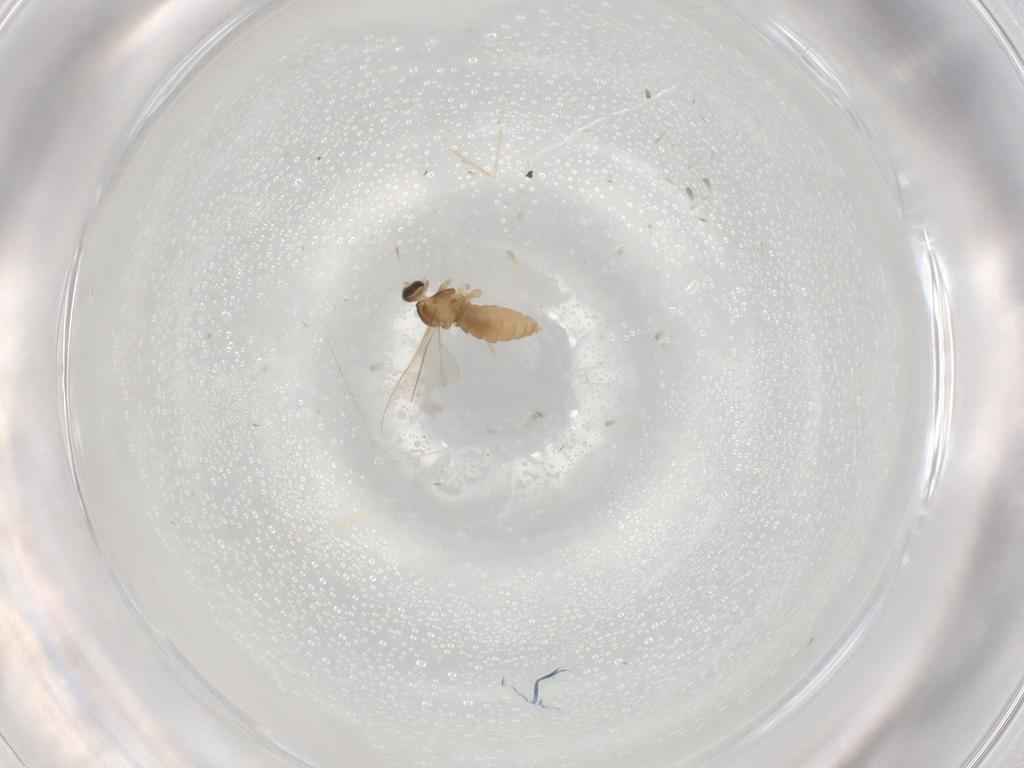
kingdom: Animalia
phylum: Arthropoda
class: Insecta
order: Diptera
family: Cecidomyiidae
